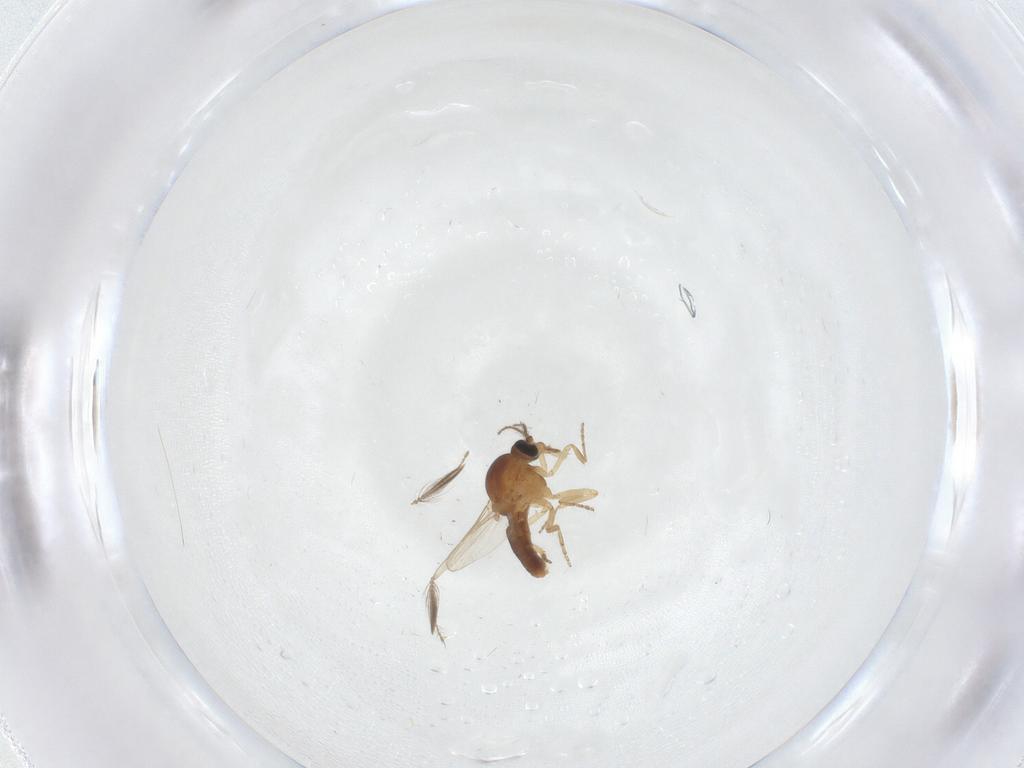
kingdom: Animalia
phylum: Arthropoda
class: Insecta
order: Diptera
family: Ceratopogonidae
